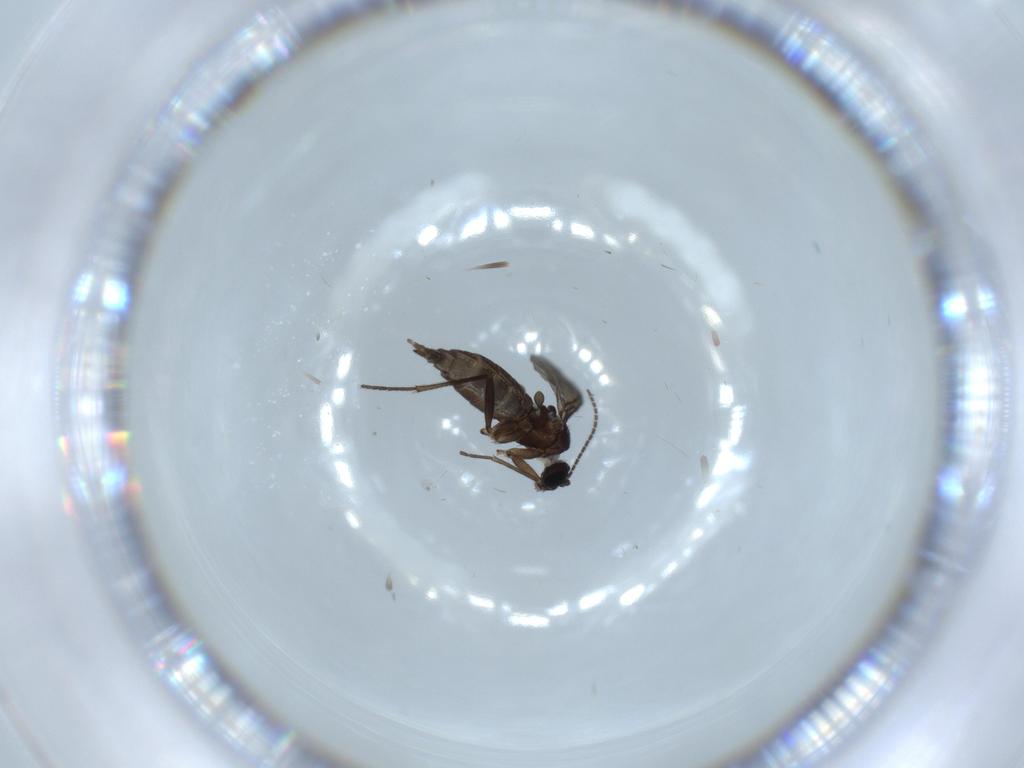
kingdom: Animalia
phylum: Arthropoda
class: Insecta
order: Diptera
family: Sciaridae
